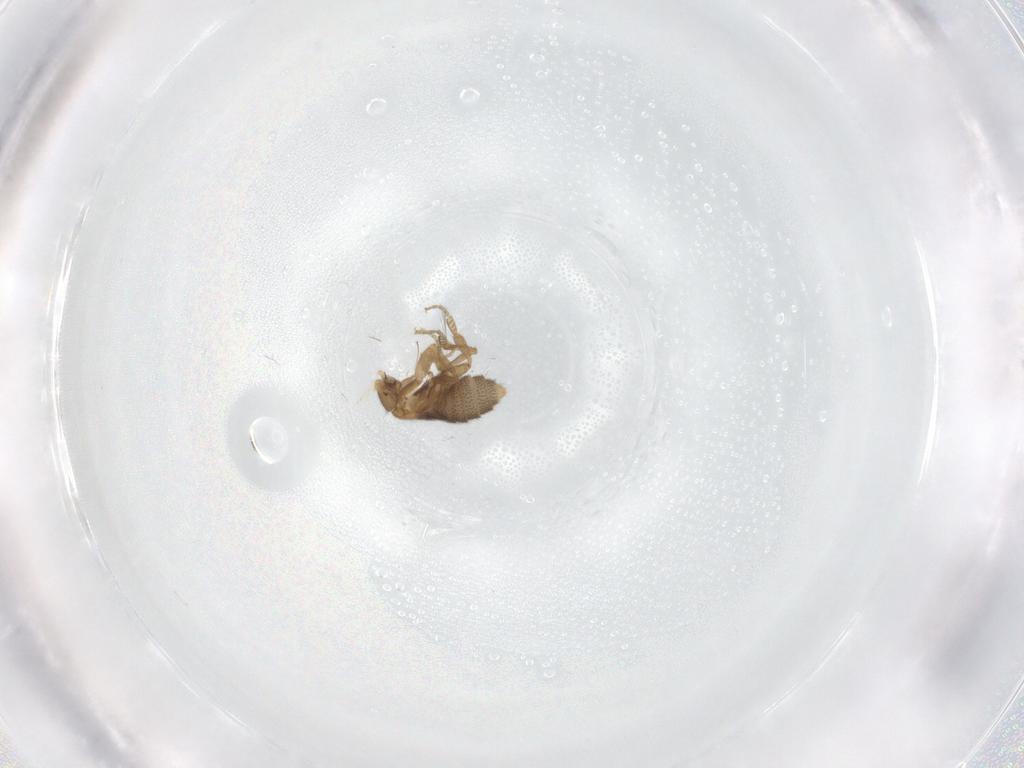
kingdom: Animalia
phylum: Arthropoda
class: Insecta
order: Diptera
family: Phoridae
